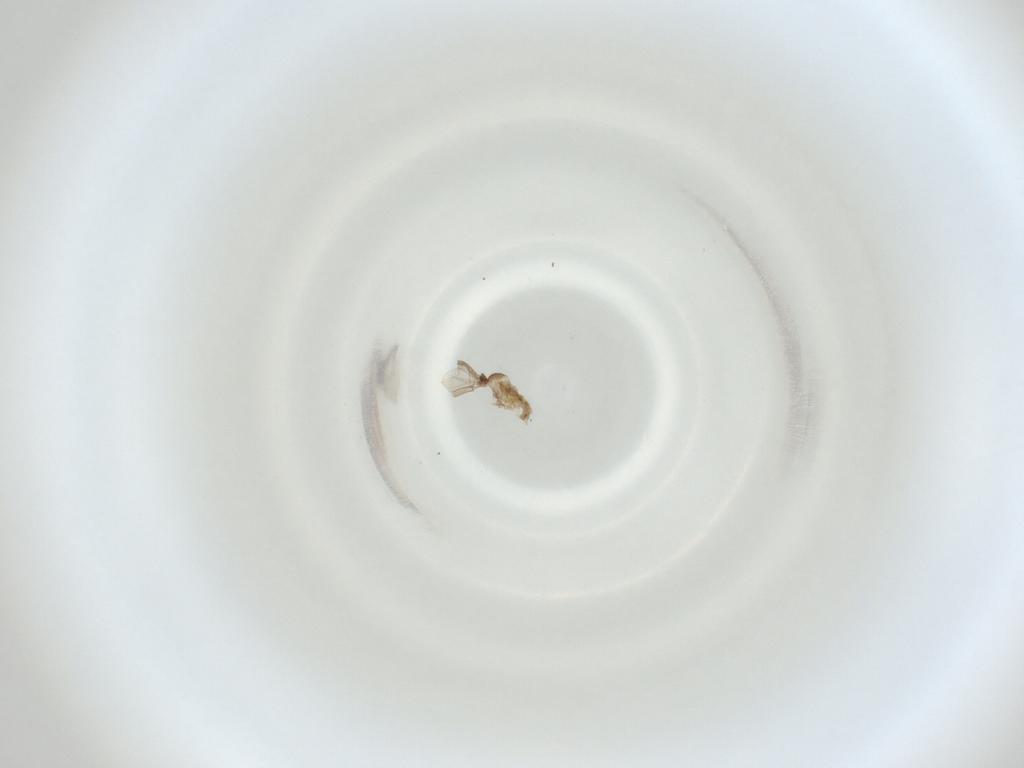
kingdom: Animalia
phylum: Arthropoda
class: Insecta
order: Diptera
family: Cecidomyiidae
